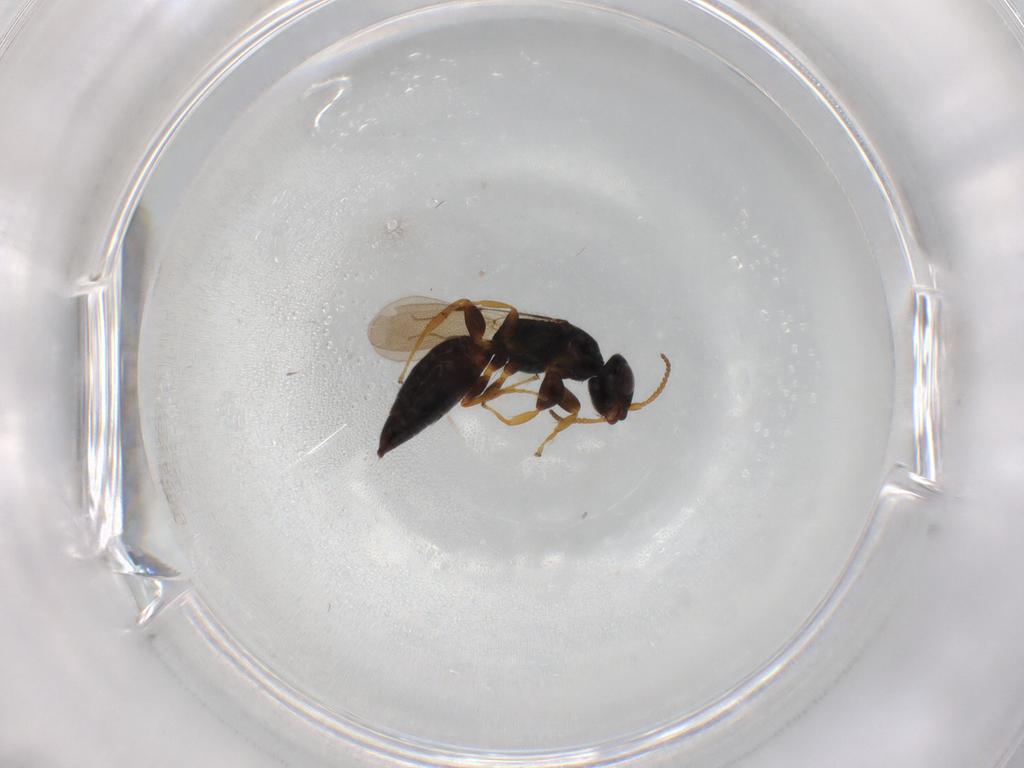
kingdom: Animalia
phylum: Arthropoda
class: Insecta
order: Hymenoptera
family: Bethylidae
